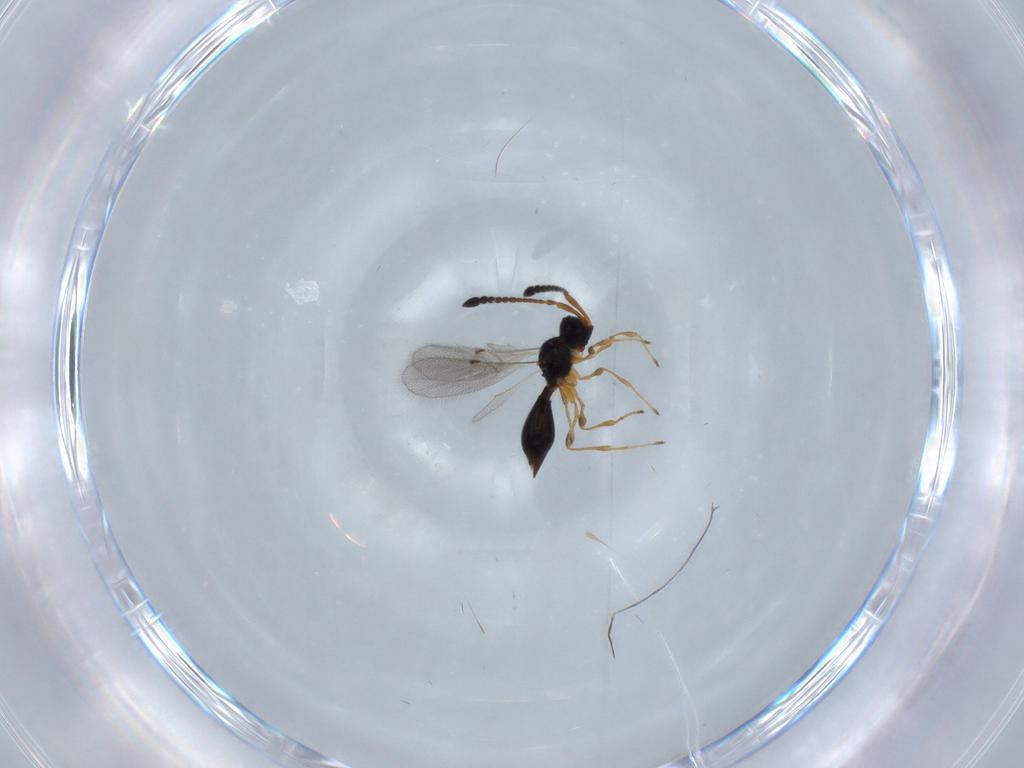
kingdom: Animalia
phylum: Arthropoda
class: Insecta
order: Hymenoptera
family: Diapriidae
